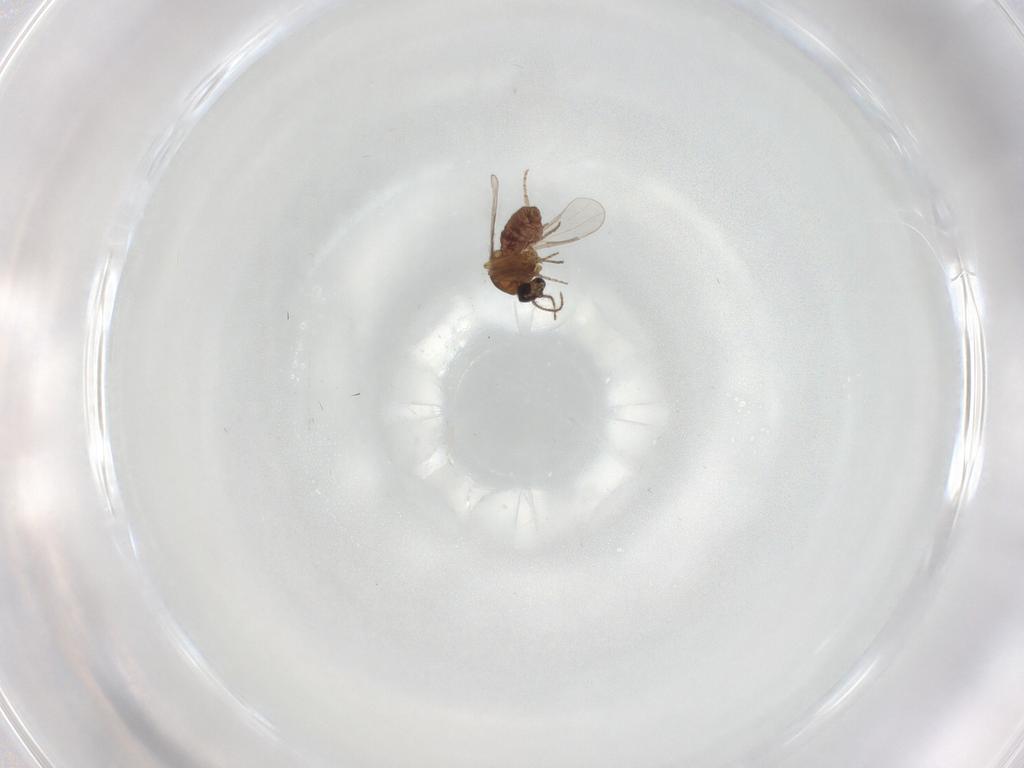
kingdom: Animalia
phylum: Arthropoda
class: Insecta
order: Diptera
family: Chironomidae
